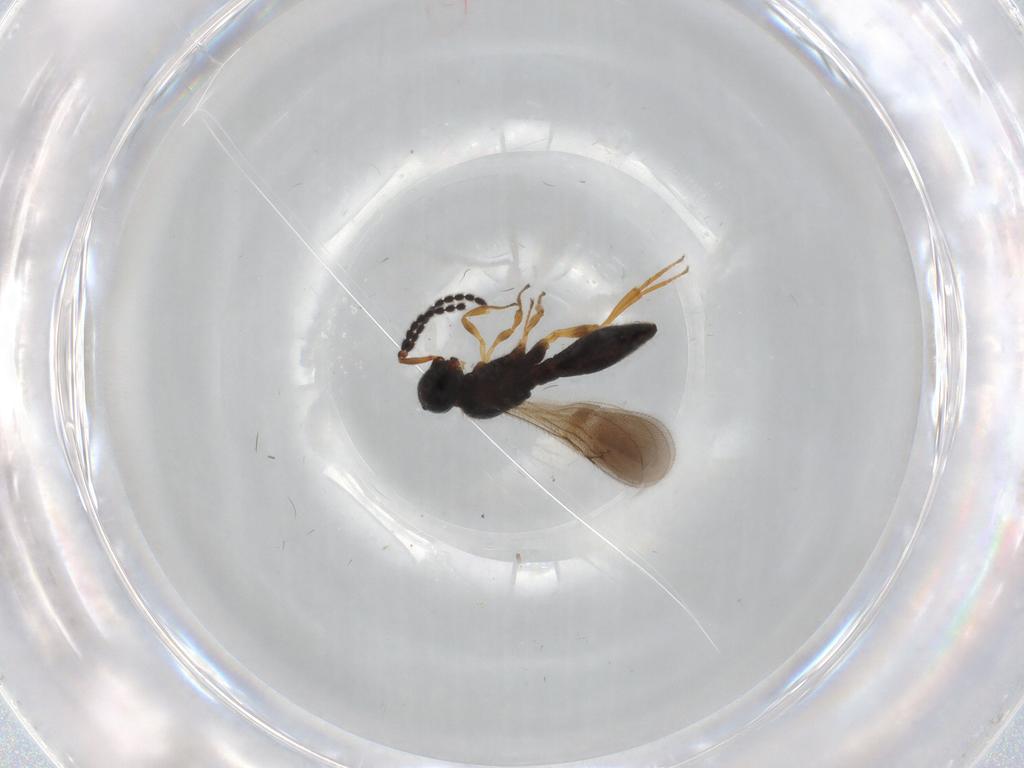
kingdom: Animalia
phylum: Arthropoda
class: Insecta
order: Hymenoptera
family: Scelionidae
